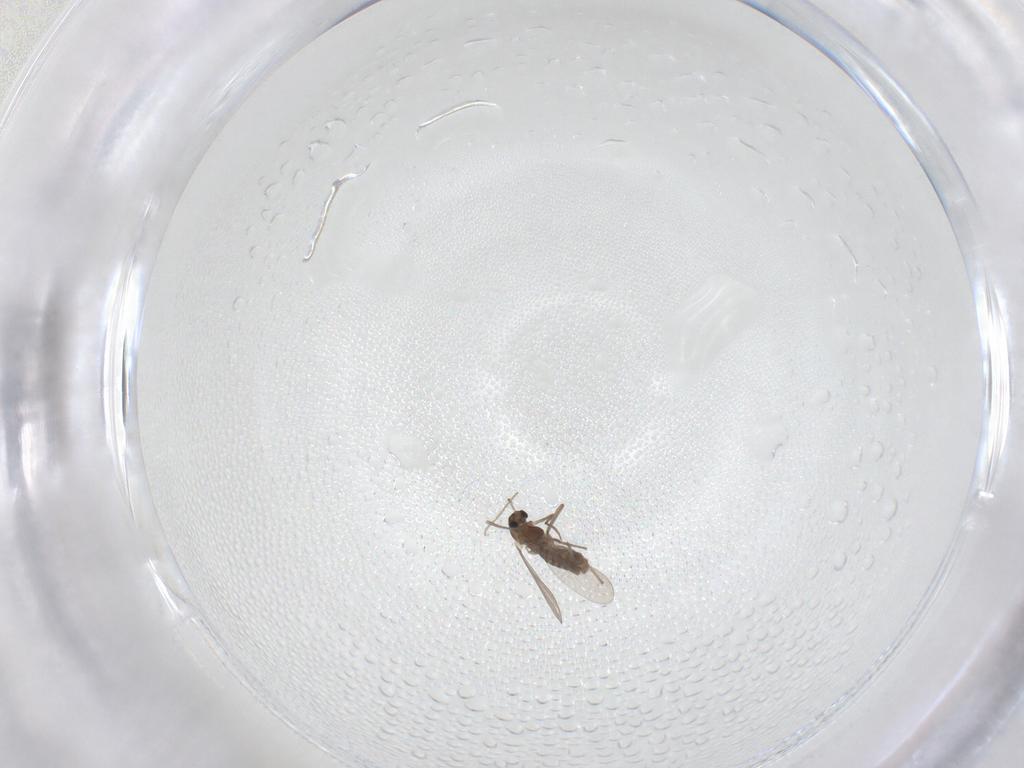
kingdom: Animalia
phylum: Arthropoda
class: Insecta
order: Diptera
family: Chironomidae
